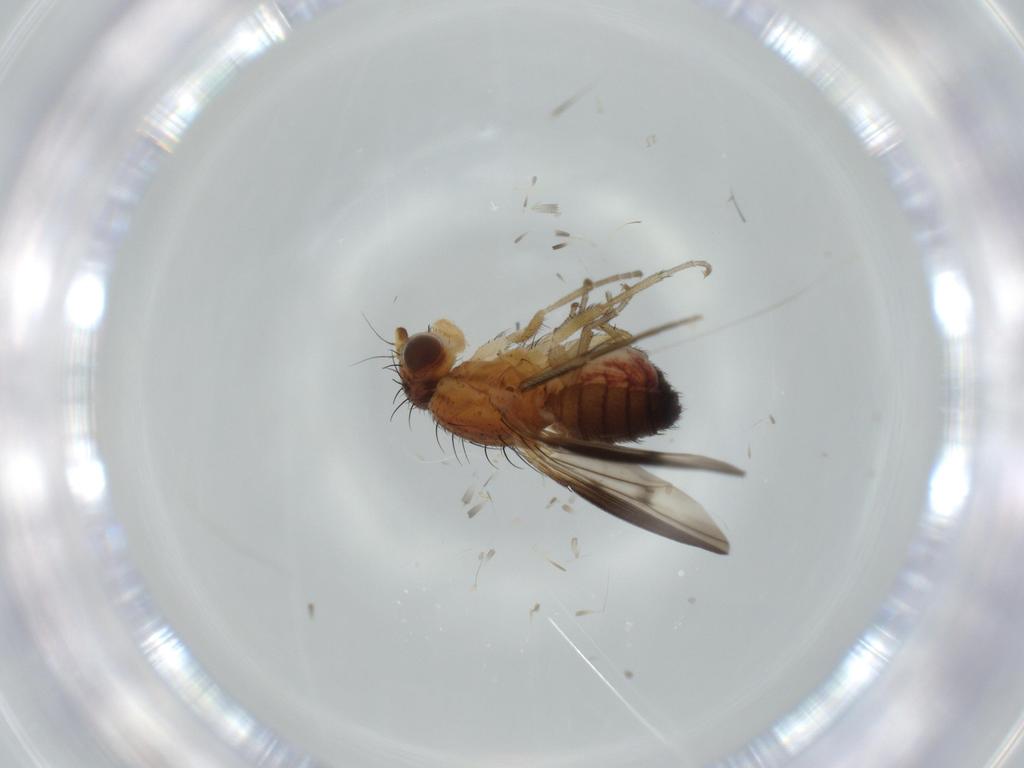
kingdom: Animalia
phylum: Arthropoda
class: Insecta
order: Diptera
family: Heleomyzidae
